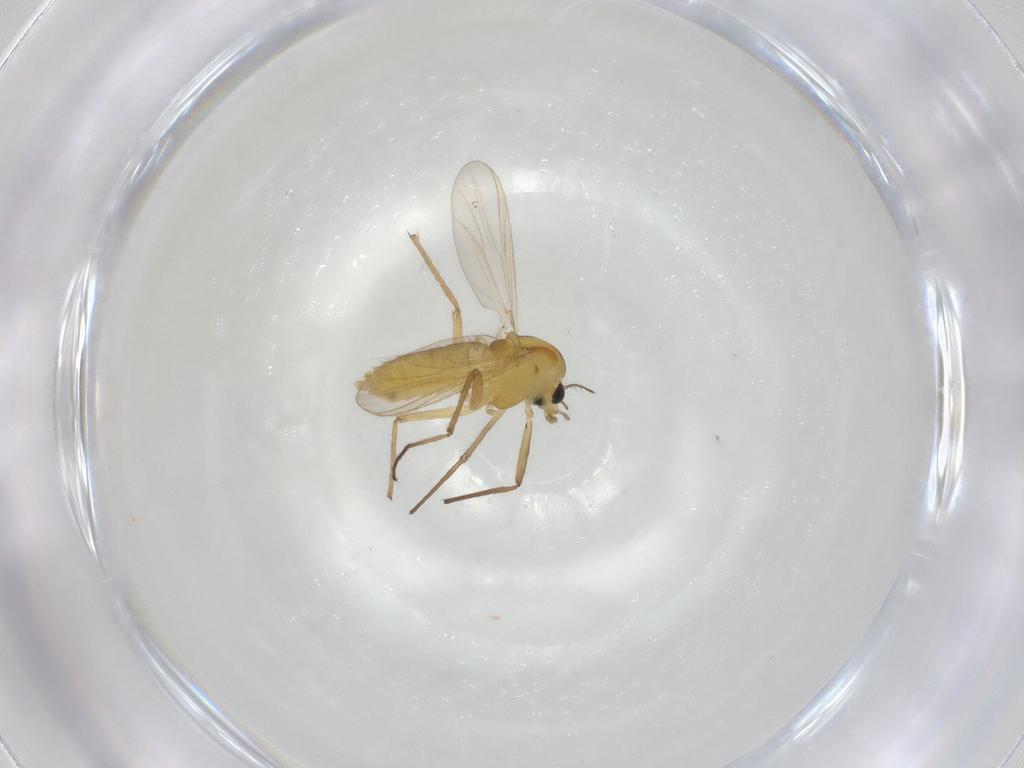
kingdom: Animalia
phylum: Arthropoda
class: Insecta
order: Diptera
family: Chironomidae
